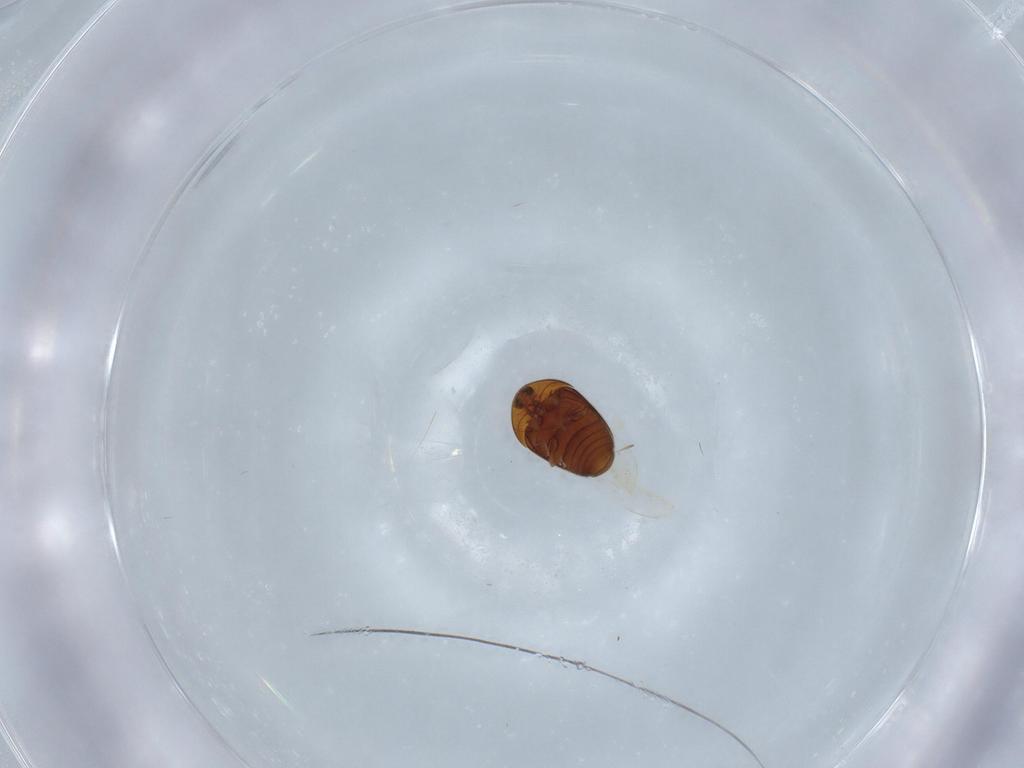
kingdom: Animalia
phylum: Arthropoda
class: Insecta
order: Coleoptera
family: Corylophidae
